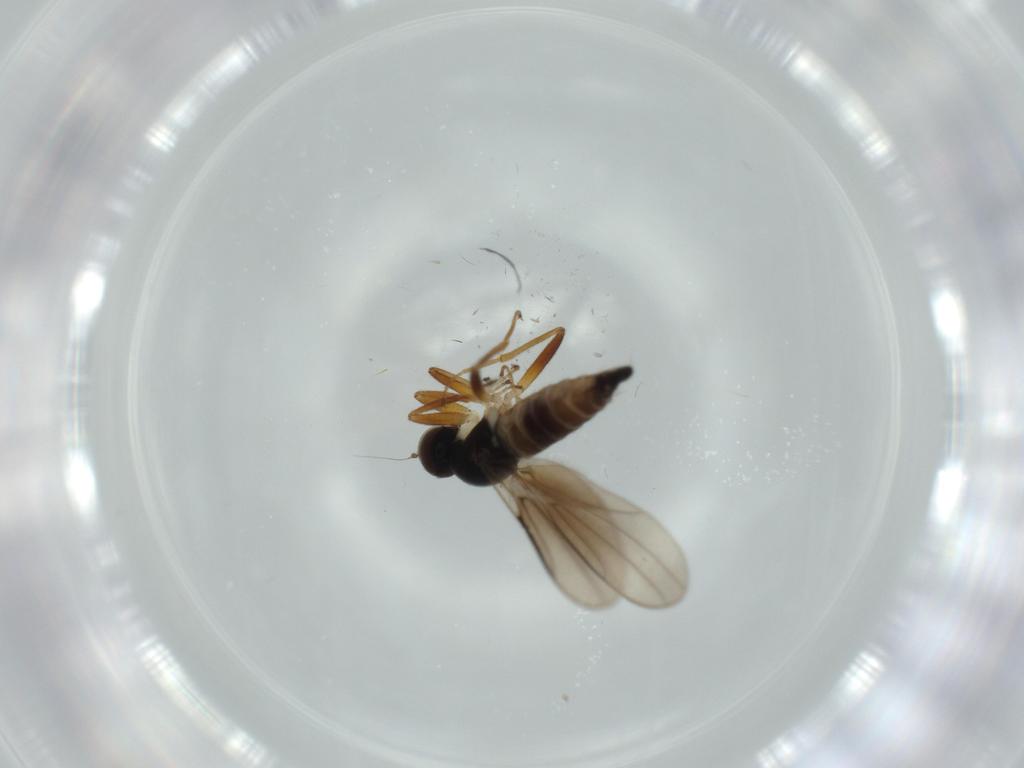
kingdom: Animalia
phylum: Arthropoda
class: Insecta
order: Diptera
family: Hybotidae
